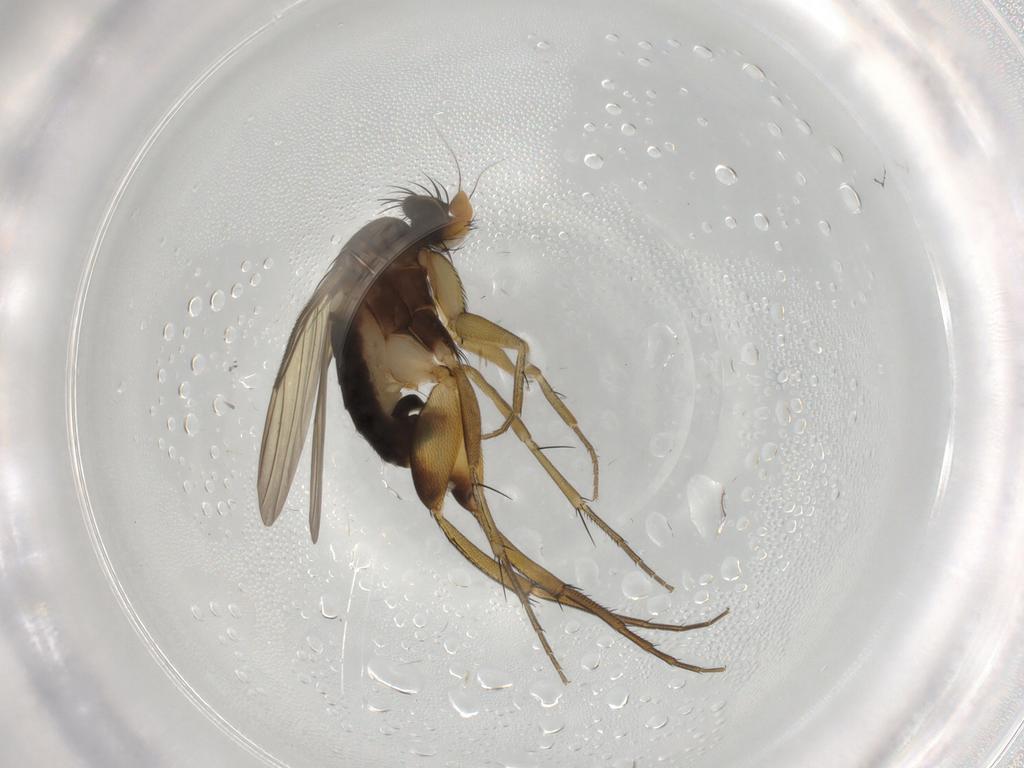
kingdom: Animalia
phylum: Arthropoda
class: Insecta
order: Diptera
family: Phoridae
